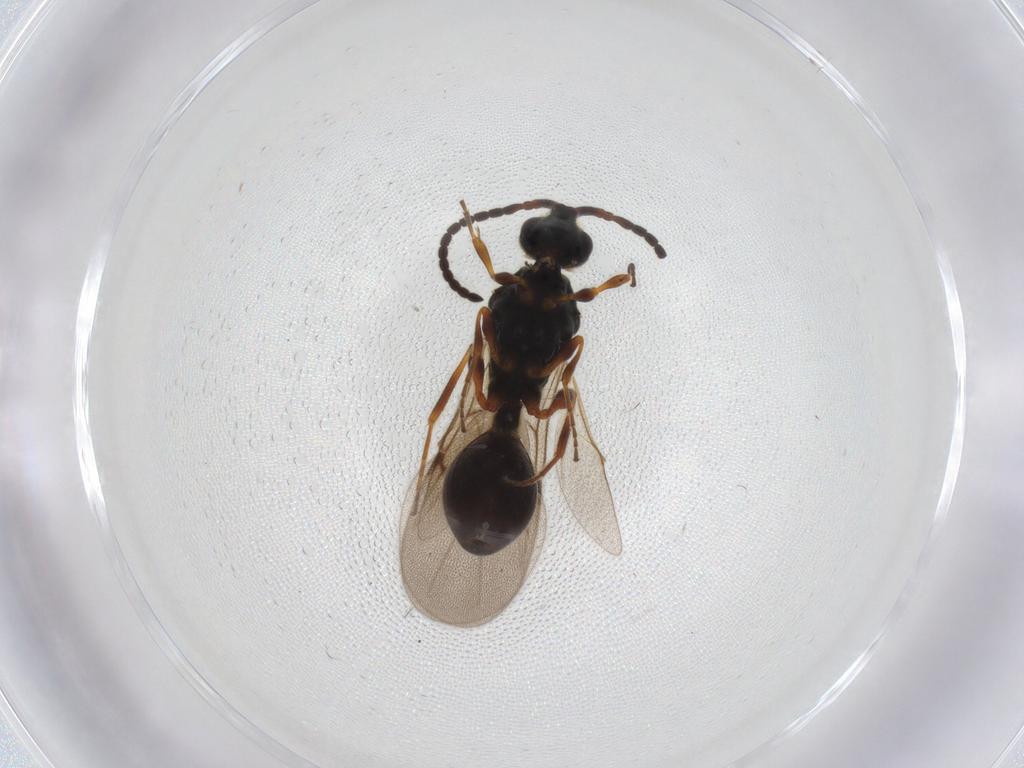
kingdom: Animalia
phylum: Arthropoda
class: Insecta
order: Hymenoptera
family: Diapriidae
